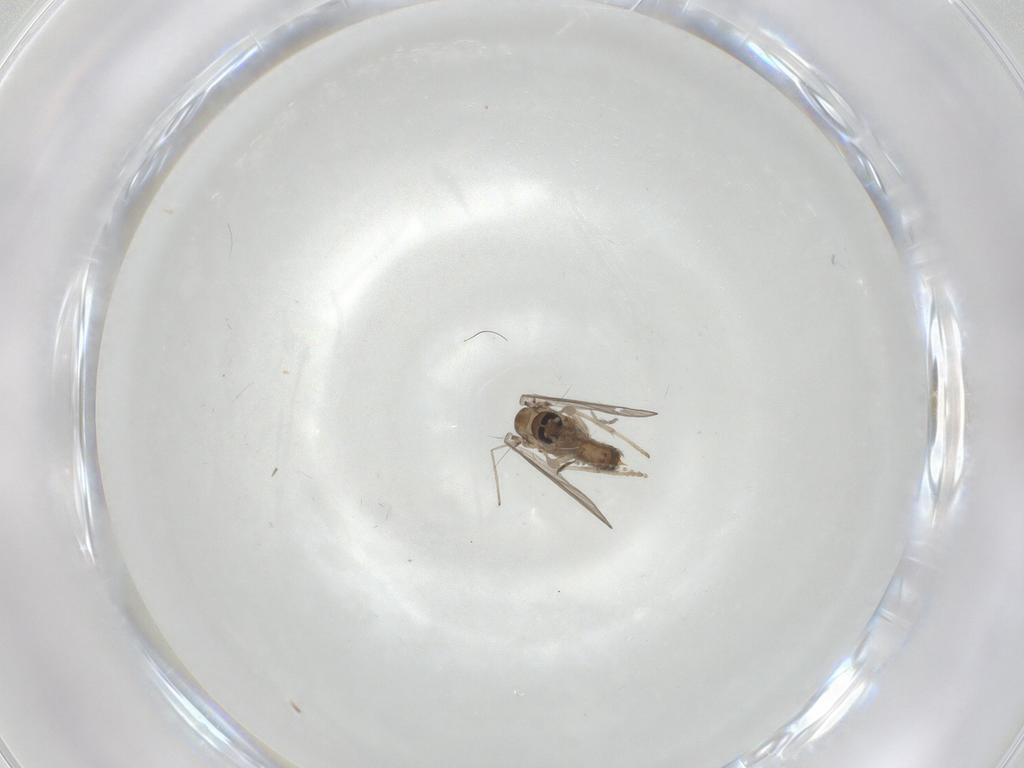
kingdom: Animalia
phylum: Arthropoda
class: Insecta
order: Diptera
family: Psychodidae
